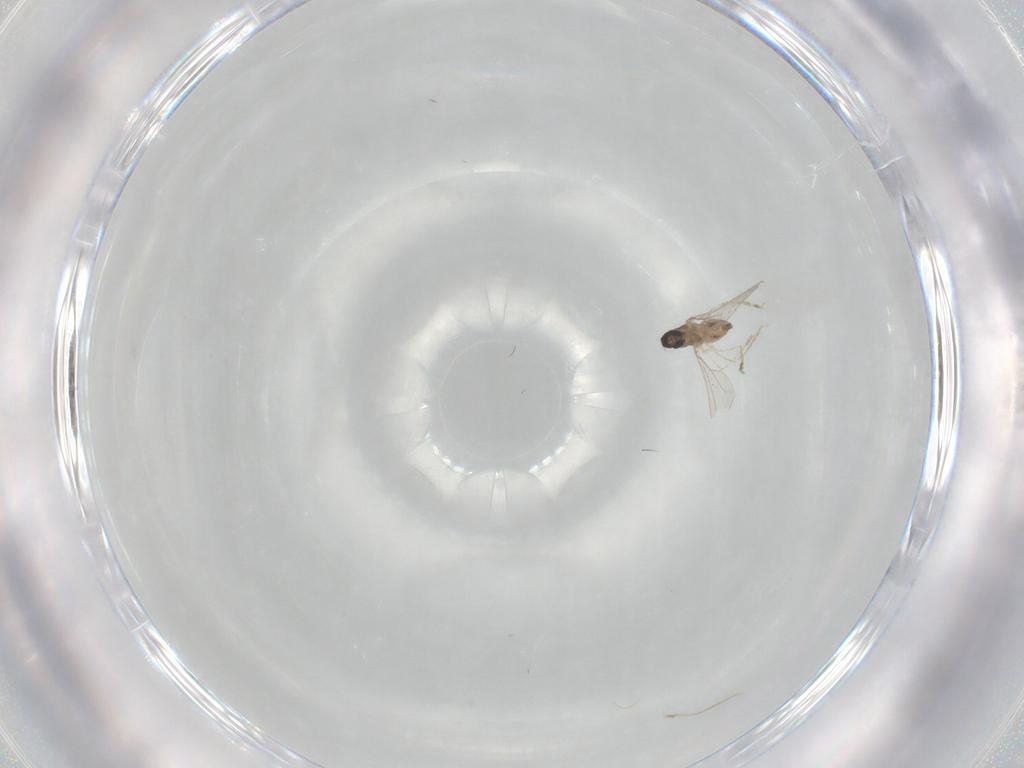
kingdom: Animalia
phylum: Arthropoda
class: Insecta
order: Diptera
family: Cecidomyiidae
